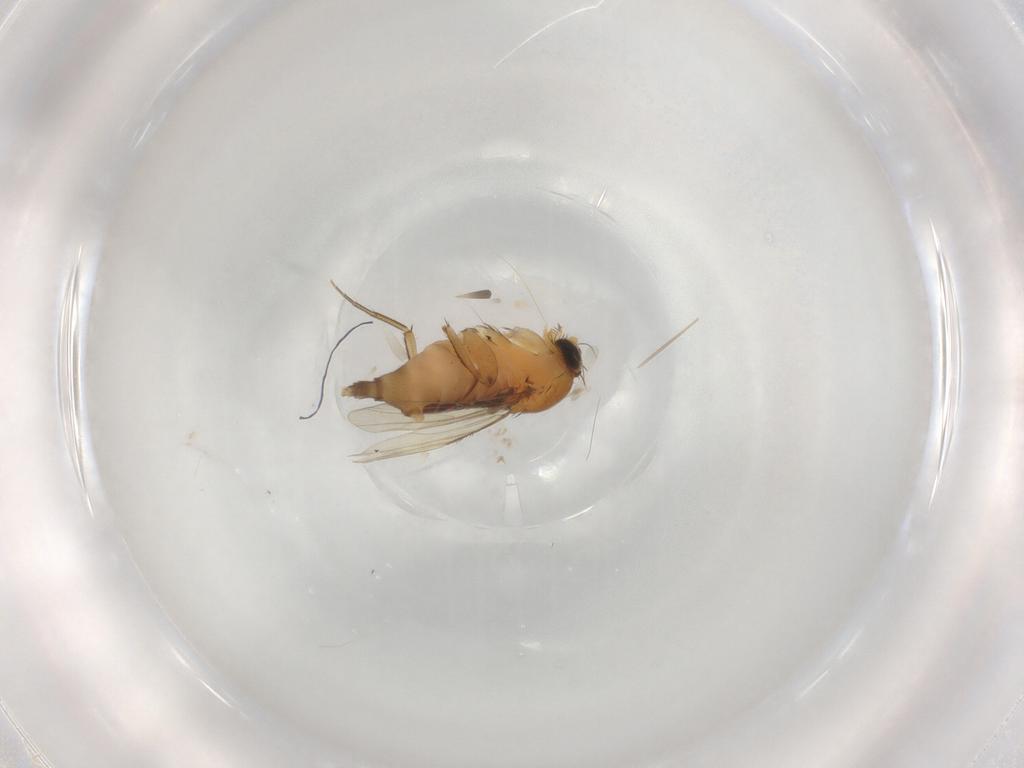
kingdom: Animalia
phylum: Arthropoda
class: Insecta
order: Diptera
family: Phoridae
